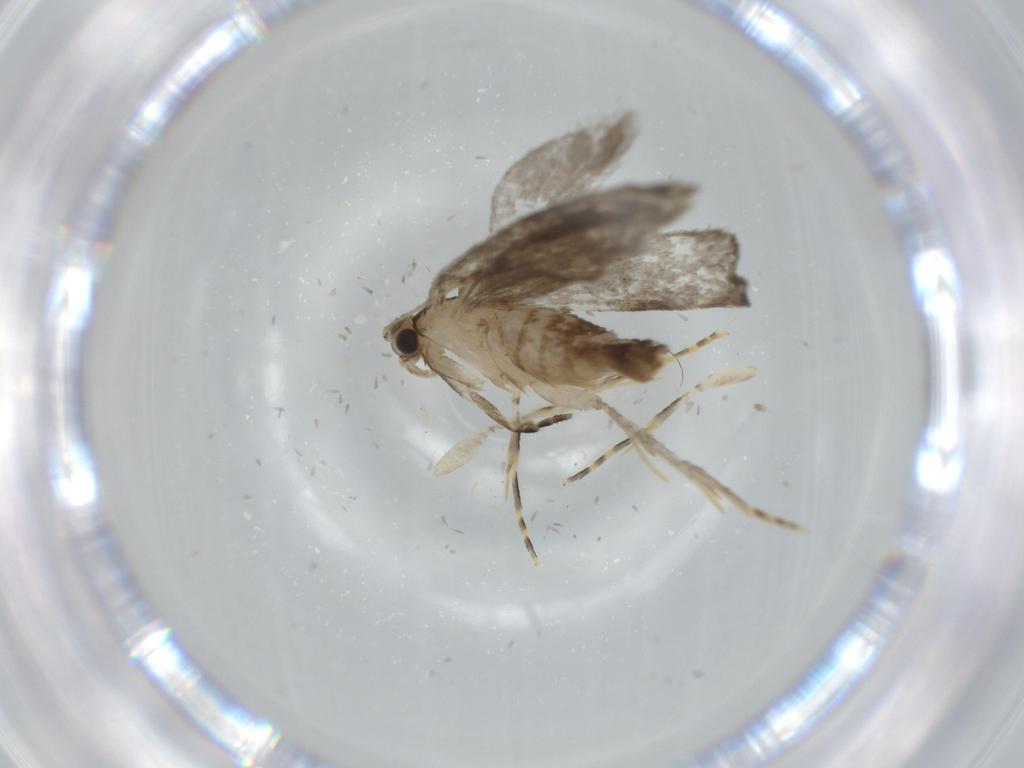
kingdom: Animalia
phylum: Arthropoda
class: Insecta
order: Lepidoptera
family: Tineidae
